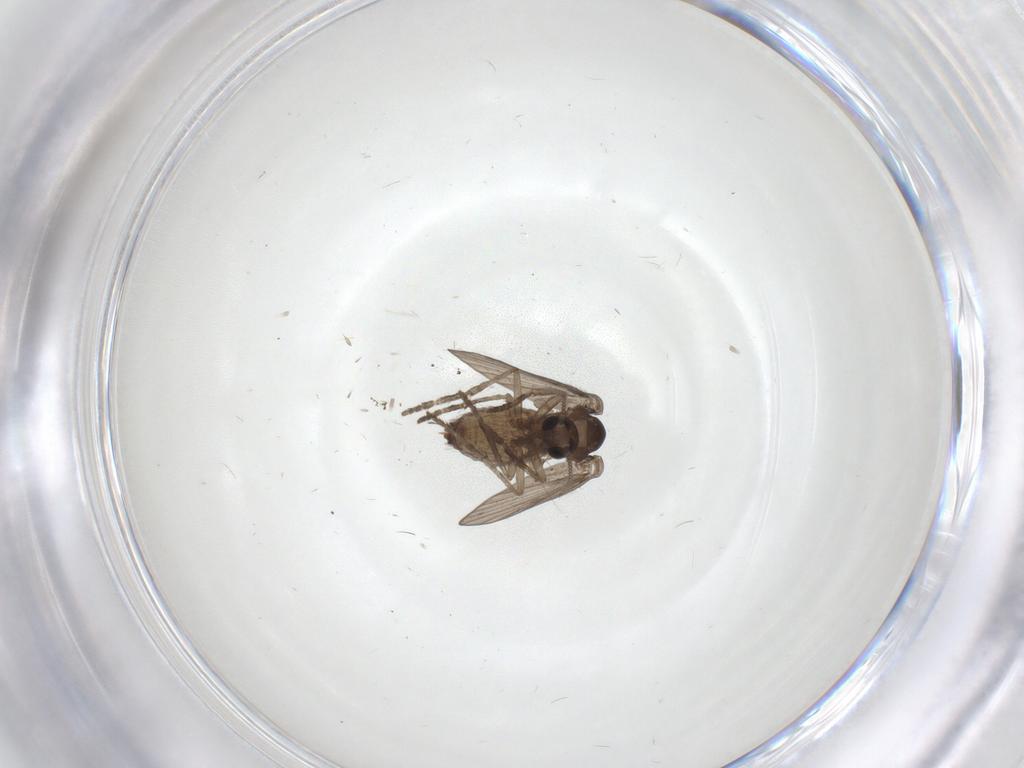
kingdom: Animalia
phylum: Arthropoda
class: Insecta
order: Diptera
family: Psychodidae
